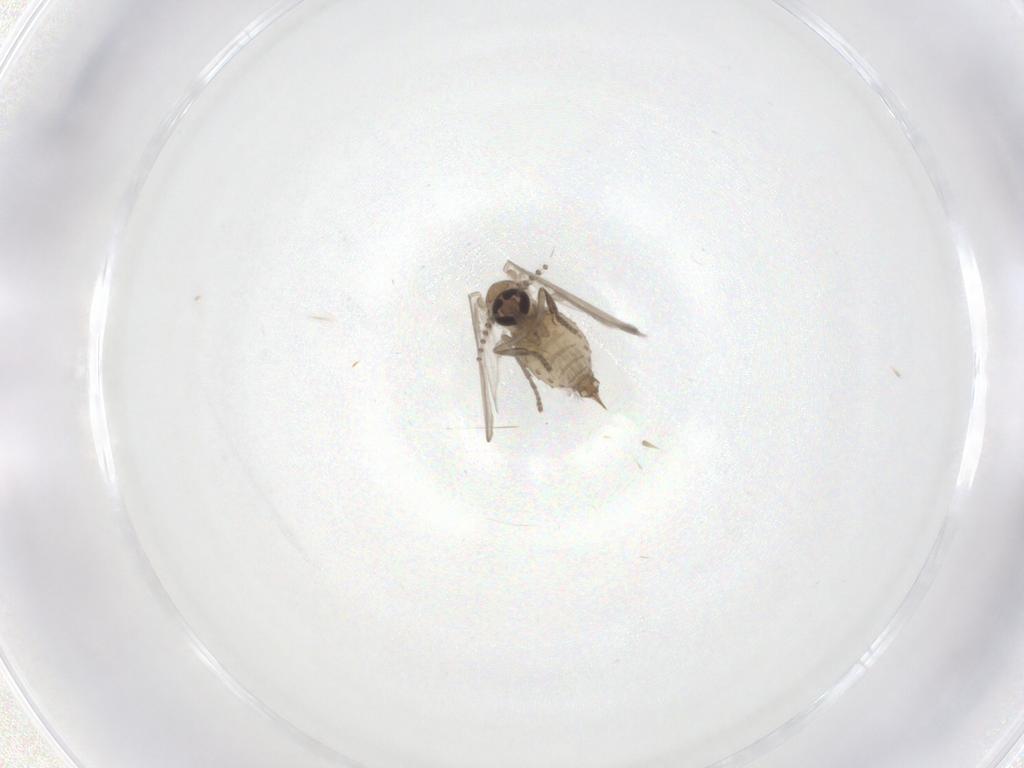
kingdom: Animalia
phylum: Arthropoda
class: Insecta
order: Diptera
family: Psychodidae
